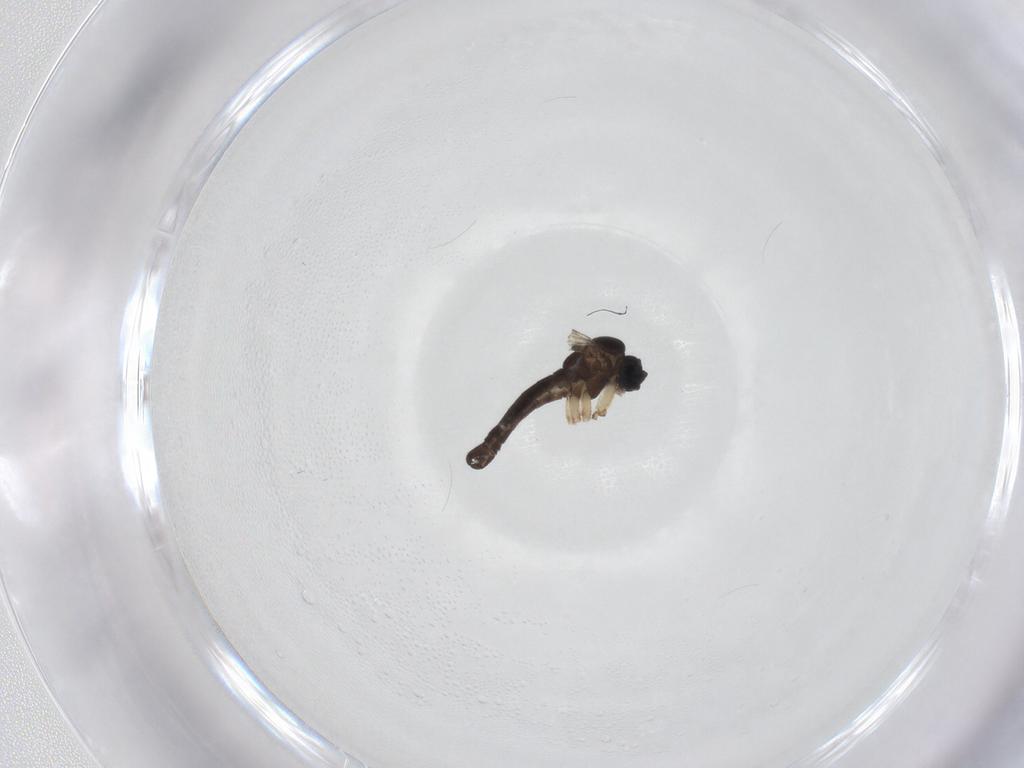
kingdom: Animalia
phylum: Arthropoda
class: Insecta
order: Diptera
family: Sciaridae
